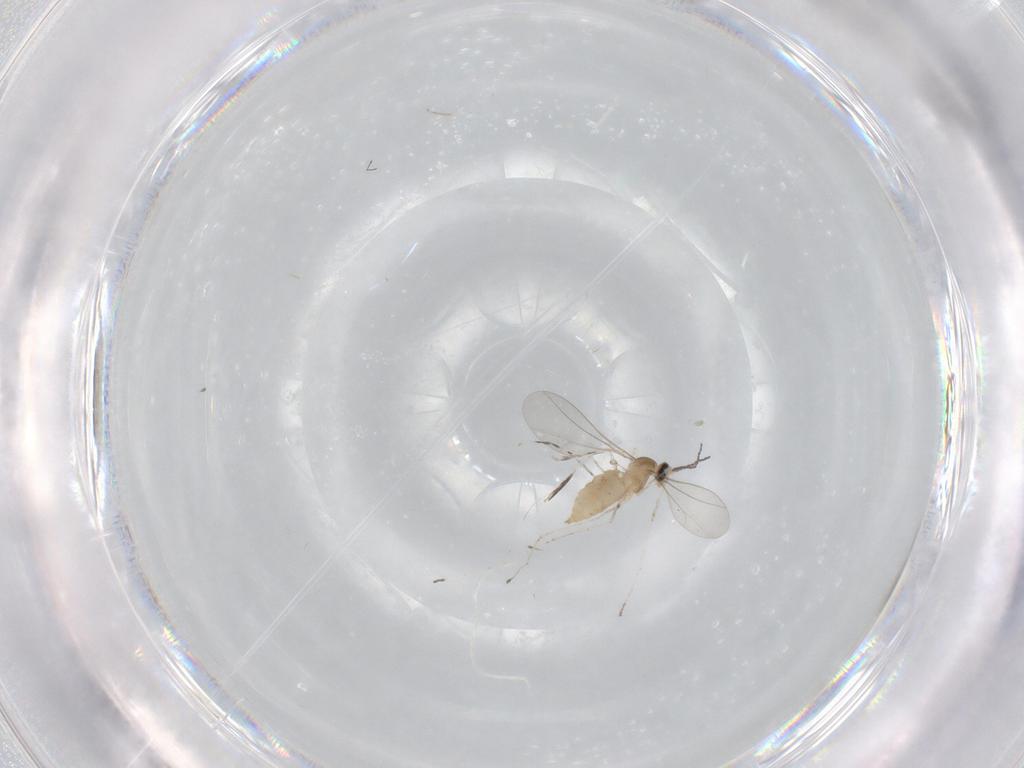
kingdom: Animalia
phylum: Arthropoda
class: Insecta
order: Diptera
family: Cecidomyiidae
